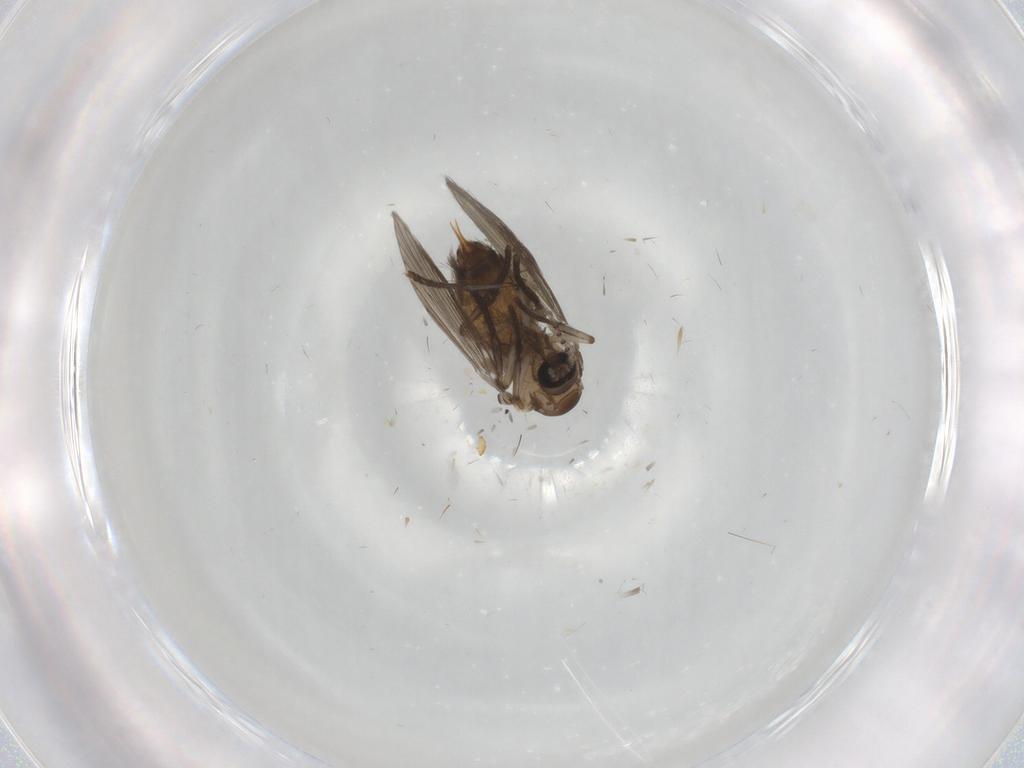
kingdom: Animalia
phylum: Arthropoda
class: Insecta
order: Diptera
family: Psychodidae
